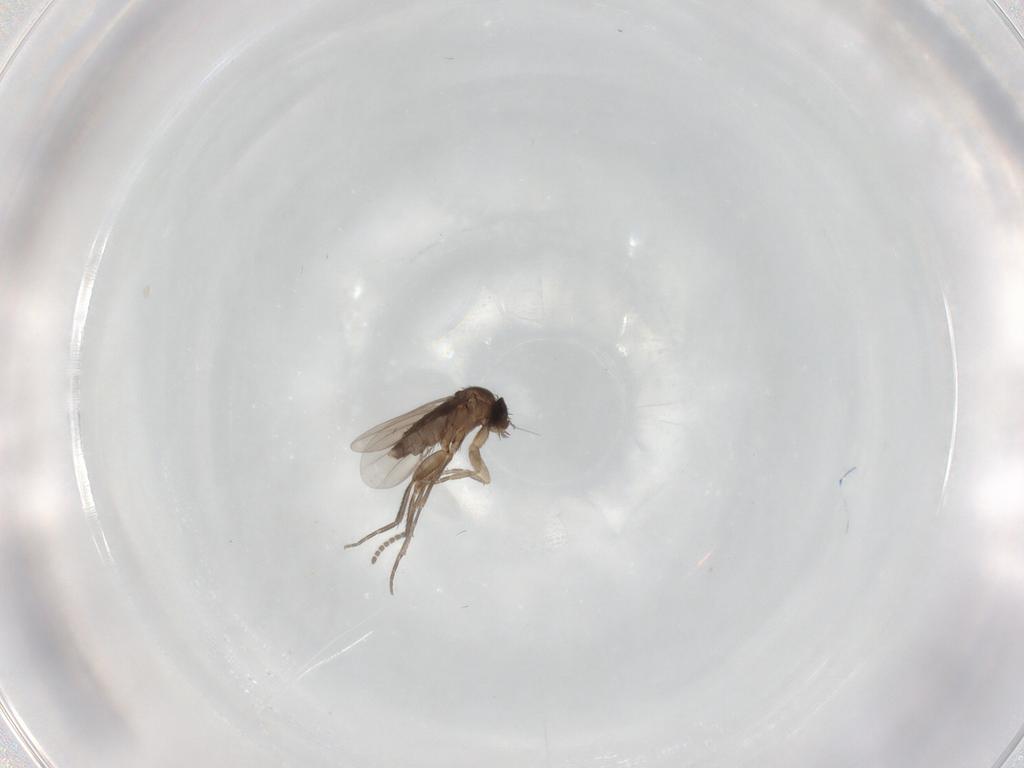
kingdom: Animalia
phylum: Arthropoda
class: Insecta
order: Diptera
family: Phoridae
